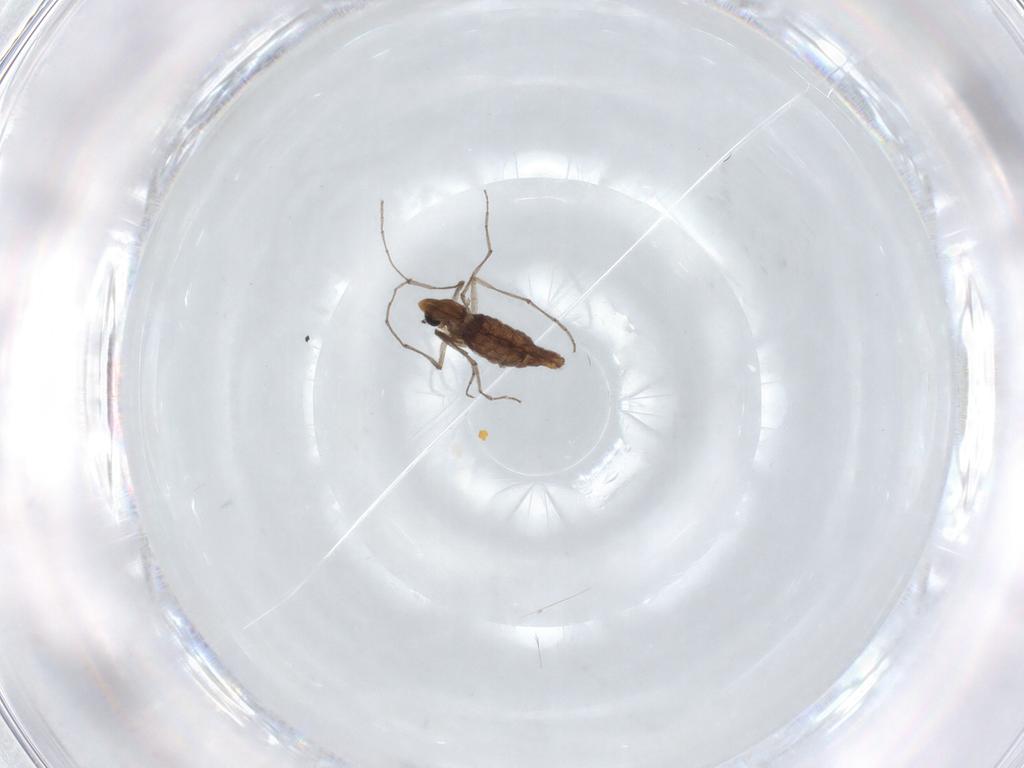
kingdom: Animalia
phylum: Arthropoda
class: Insecta
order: Diptera
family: Chironomidae
